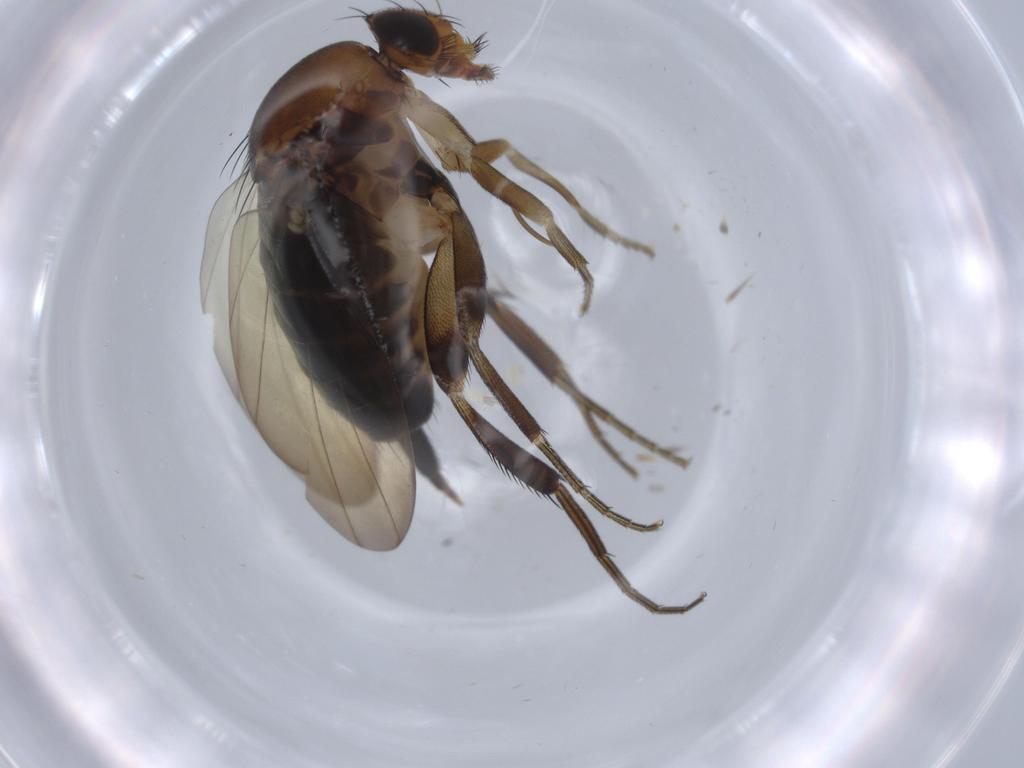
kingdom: Animalia
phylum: Arthropoda
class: Insecta
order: Diptera
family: Phoridae
